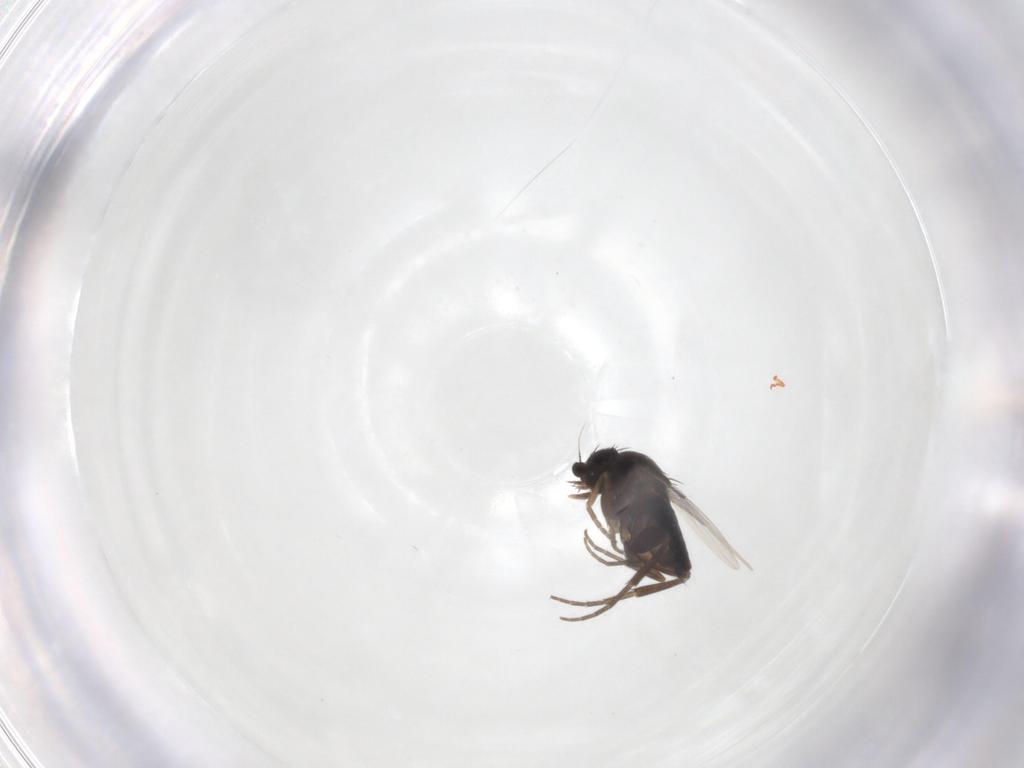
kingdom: Animalia
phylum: Arthropoda
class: Insecta
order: Diptera
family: Phoridae
